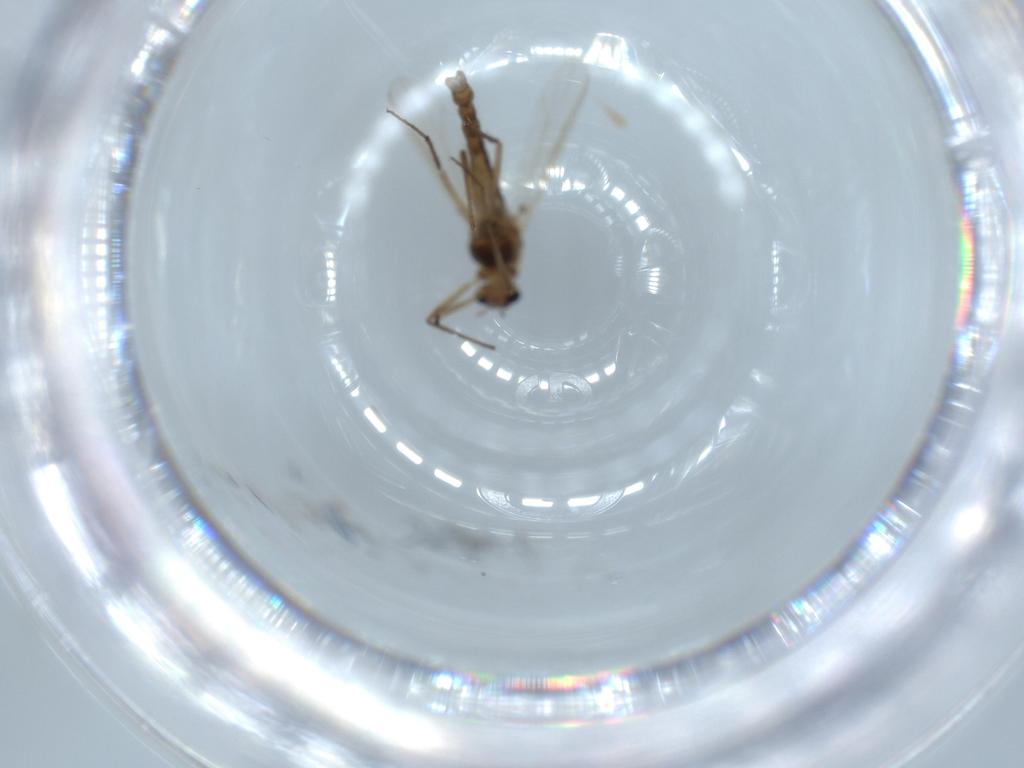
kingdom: Animalia
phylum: Arthropoda
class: Insecta
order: Diptera
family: Chironomidae
